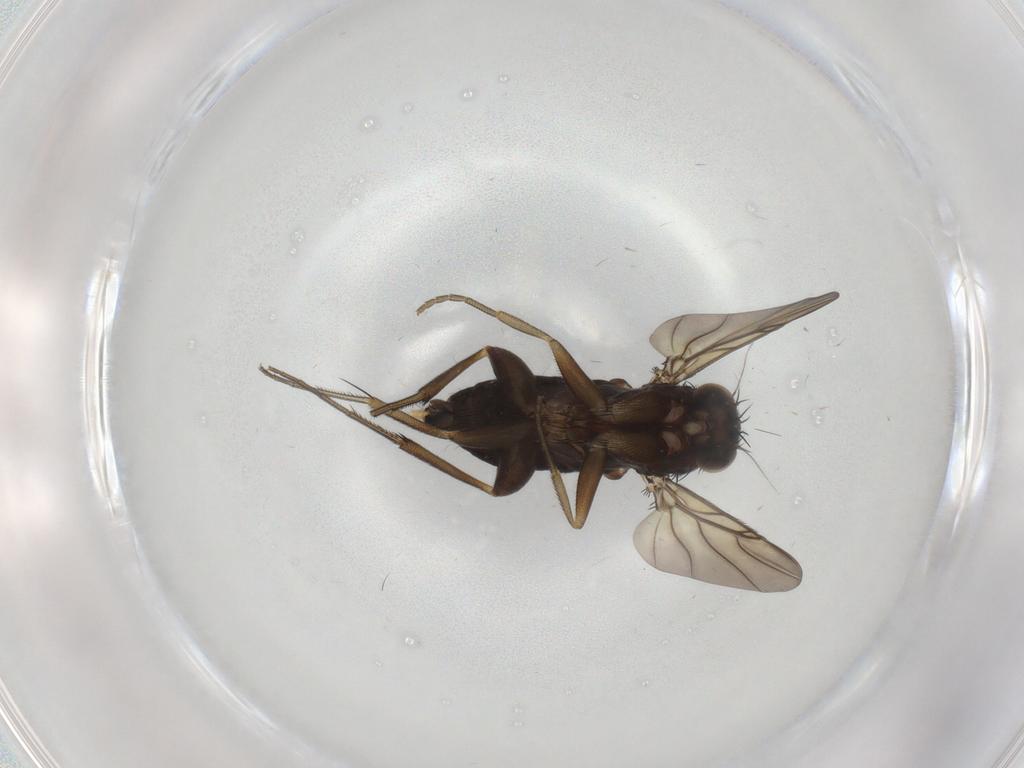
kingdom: Animalia
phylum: Arthropoda
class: Insecta
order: Diptera
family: Phoridae
